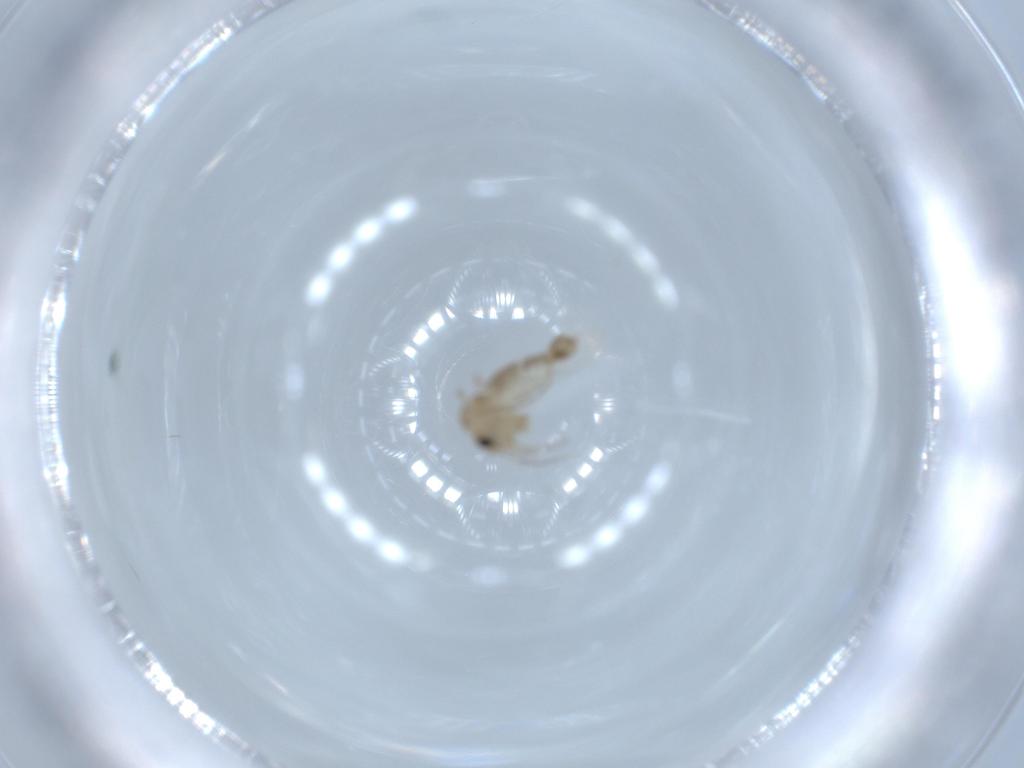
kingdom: Animalia
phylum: Arthropoda
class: Insecta
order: Diptera
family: Psychodidae
